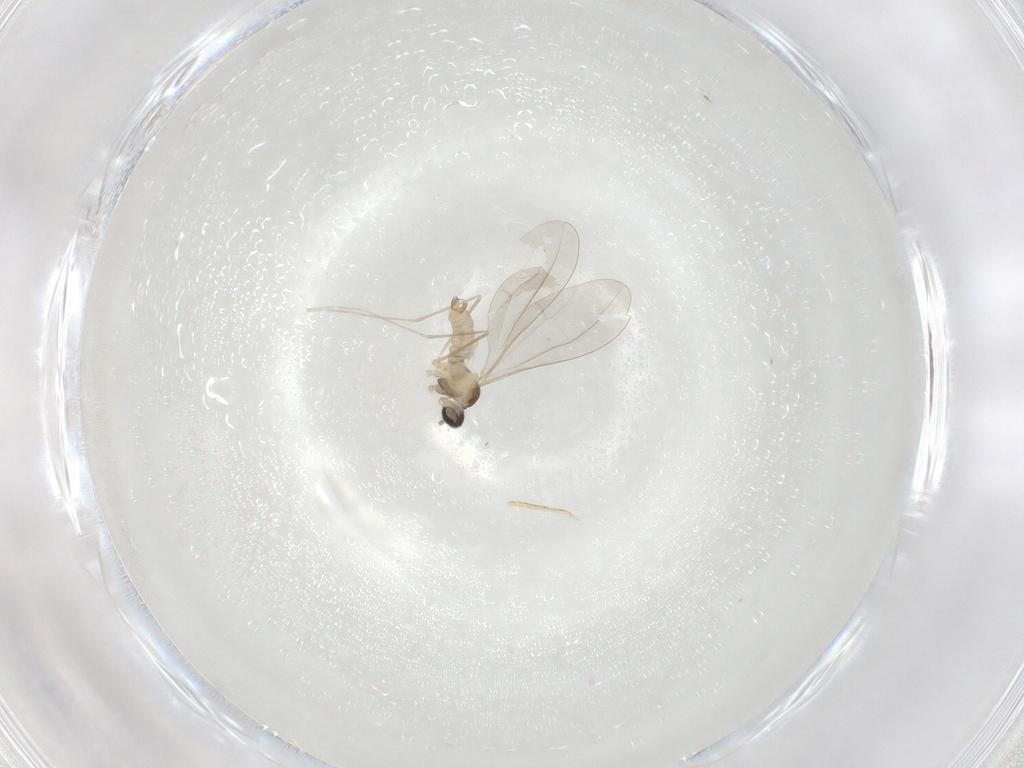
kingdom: Animalia
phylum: Arthropoda
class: Insecta
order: Diptera
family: Cecidomyiidae
